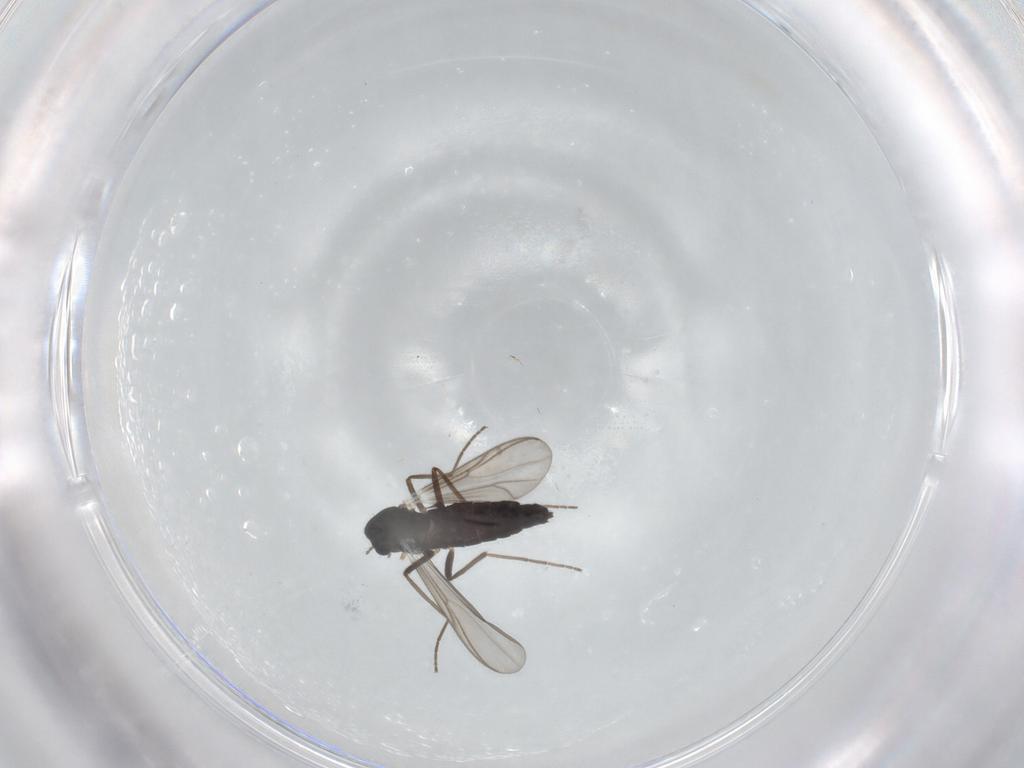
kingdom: Animalia
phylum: Arthropoda
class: Insecta
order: Diptera
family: Chironomidae
